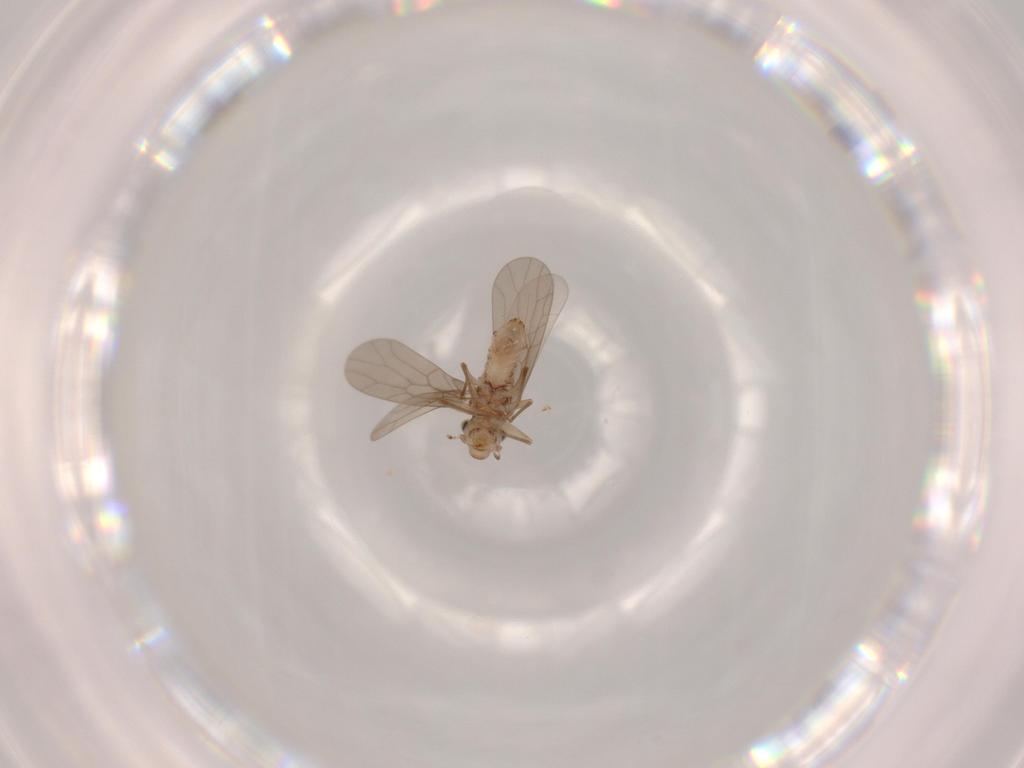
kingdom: Animalia
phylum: Arthropoda
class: Insecta
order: Psocodea
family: Lepidopsocidae
